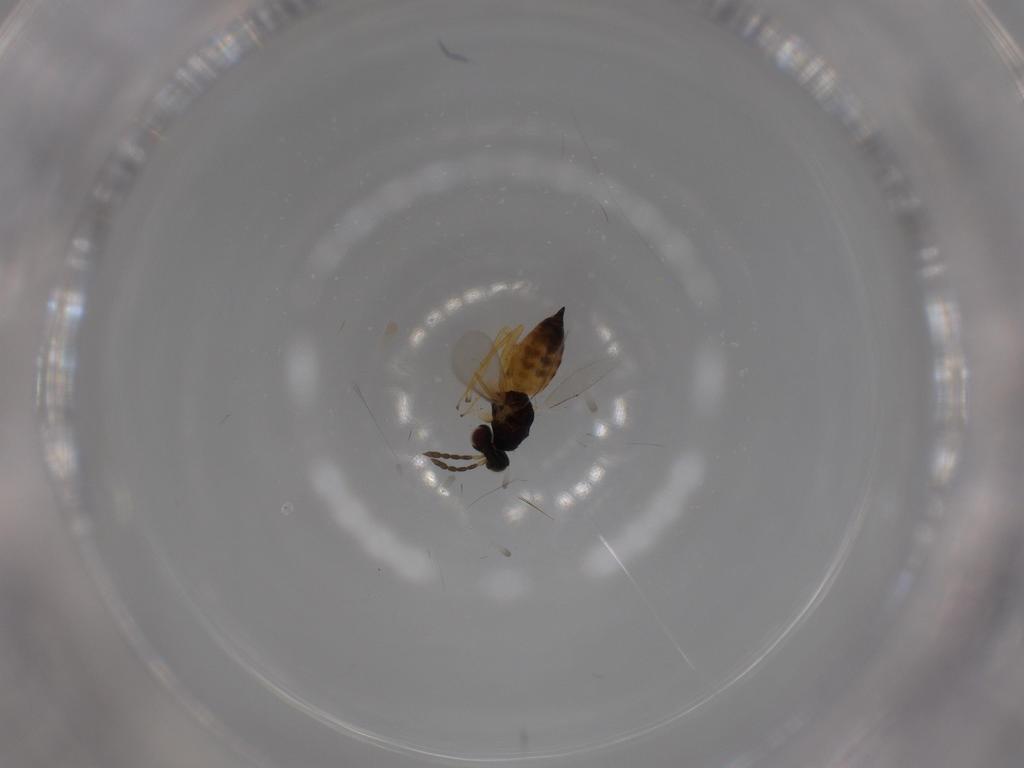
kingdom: Animalia
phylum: Arthropoda
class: Insecta
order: Hymenoptera
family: Eulophidae
